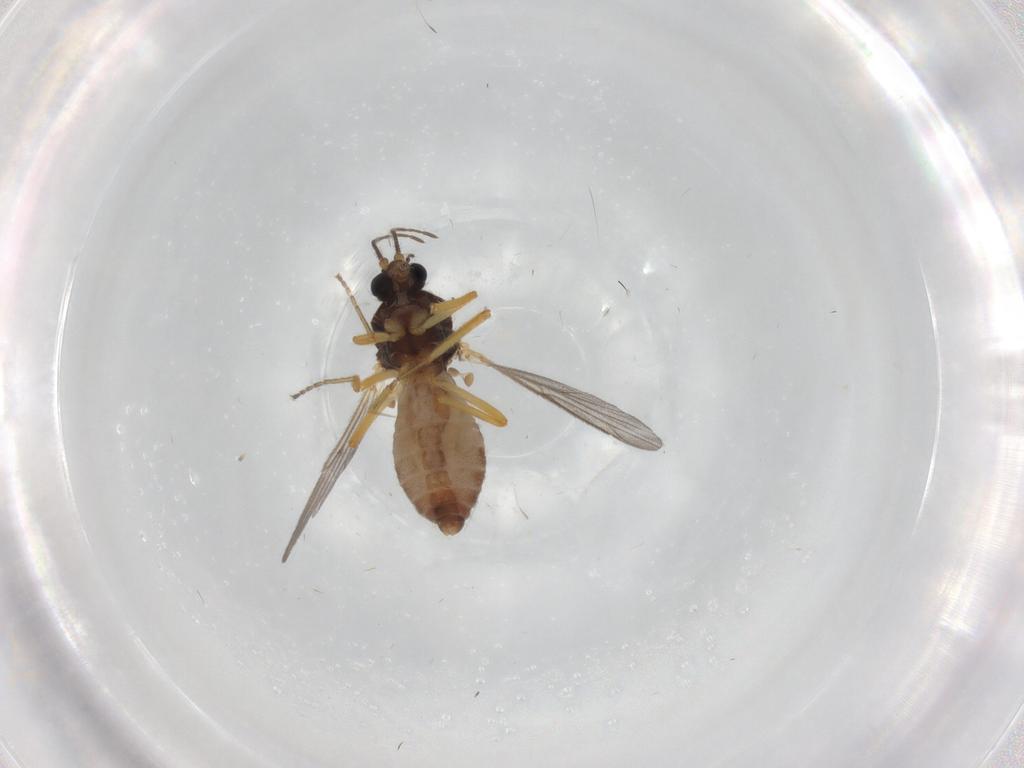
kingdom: Animalia
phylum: Arthropoda
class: Insecta
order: Diptera
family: Ceratopogonidae
